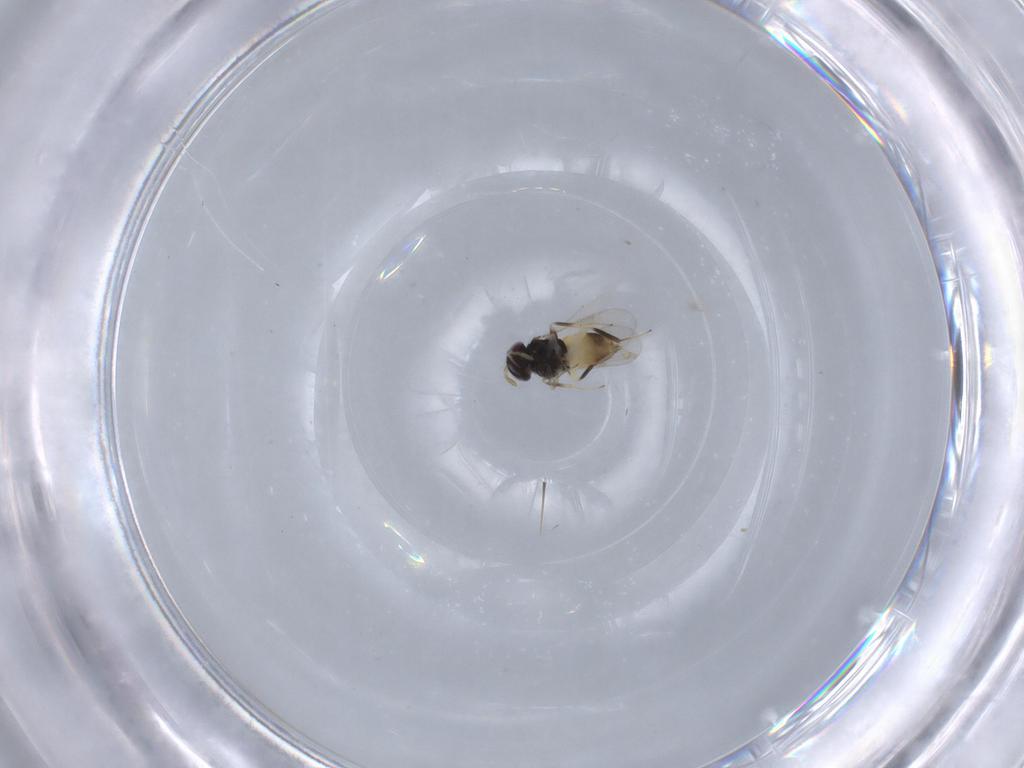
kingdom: Animalia
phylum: Arthropoda
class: Insecta
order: Hymenoptera
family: Aphelinidae
